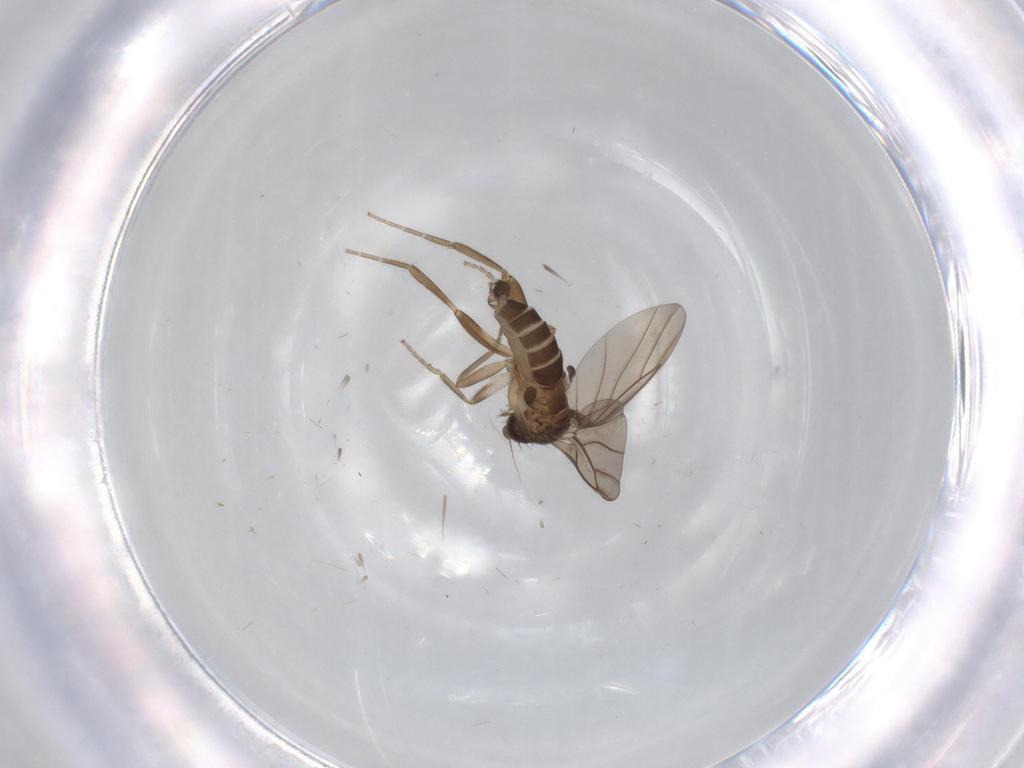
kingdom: Animalia
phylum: Arthropoda
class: Insecta
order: Diptera
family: Chironomidae
